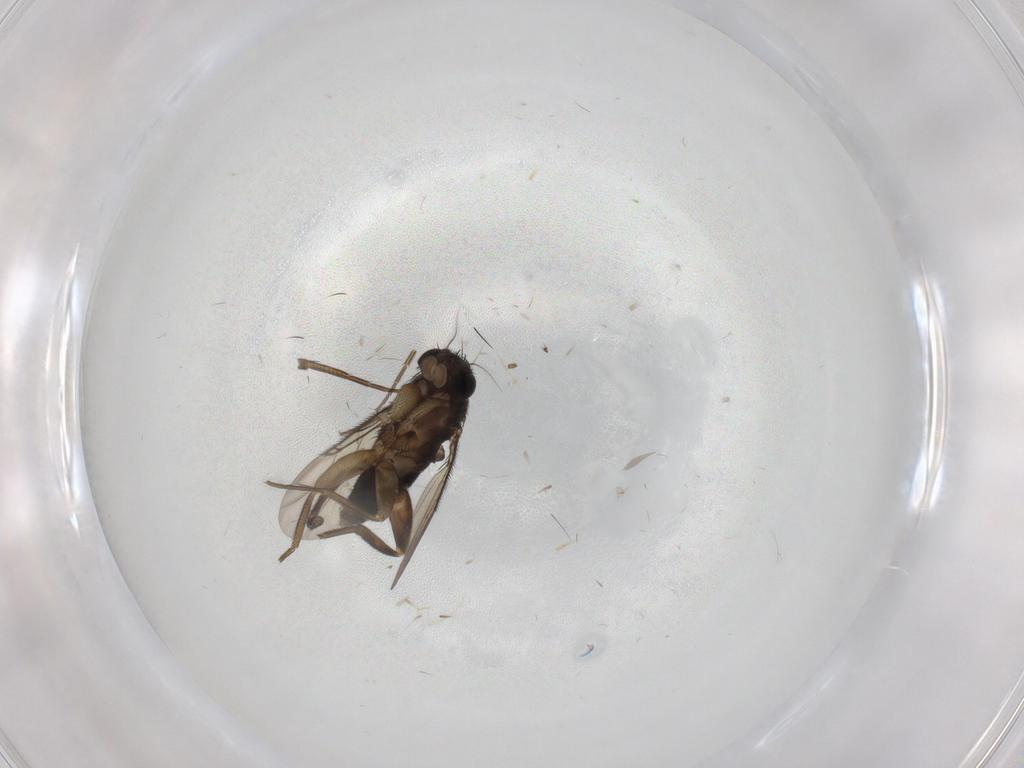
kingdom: Animalia
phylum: Arthropoda
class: Insecta
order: Diptera
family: Phoridae
